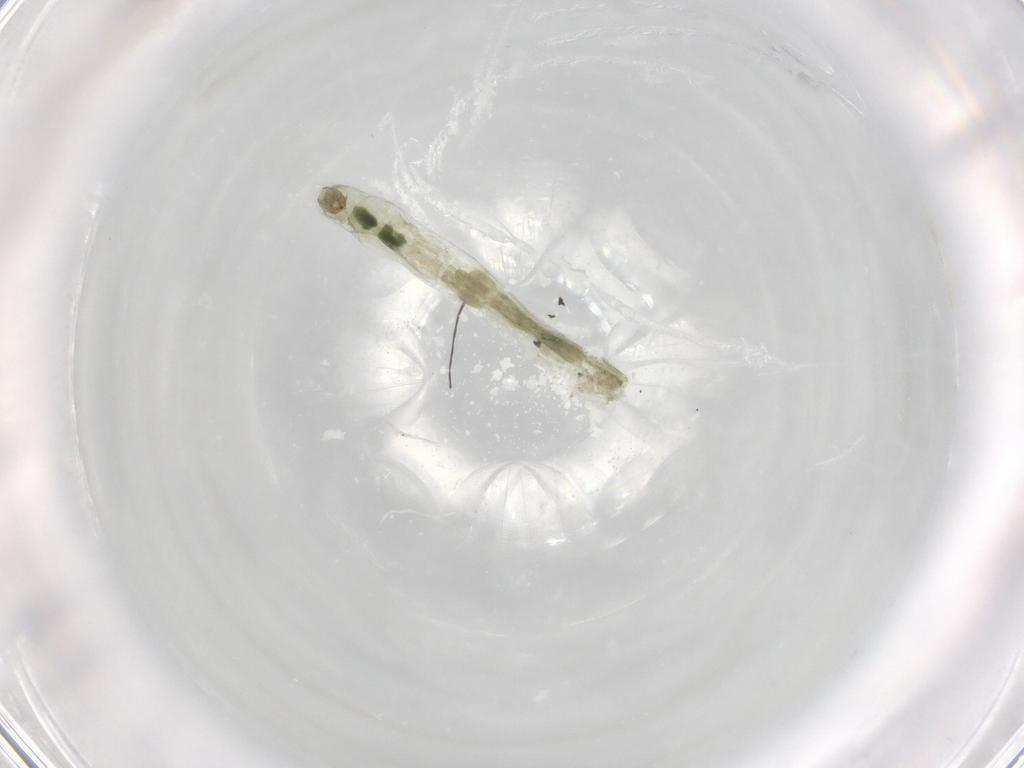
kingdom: Animalia
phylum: Arthropoda
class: Insecta
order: Diptera
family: Chironomidae
